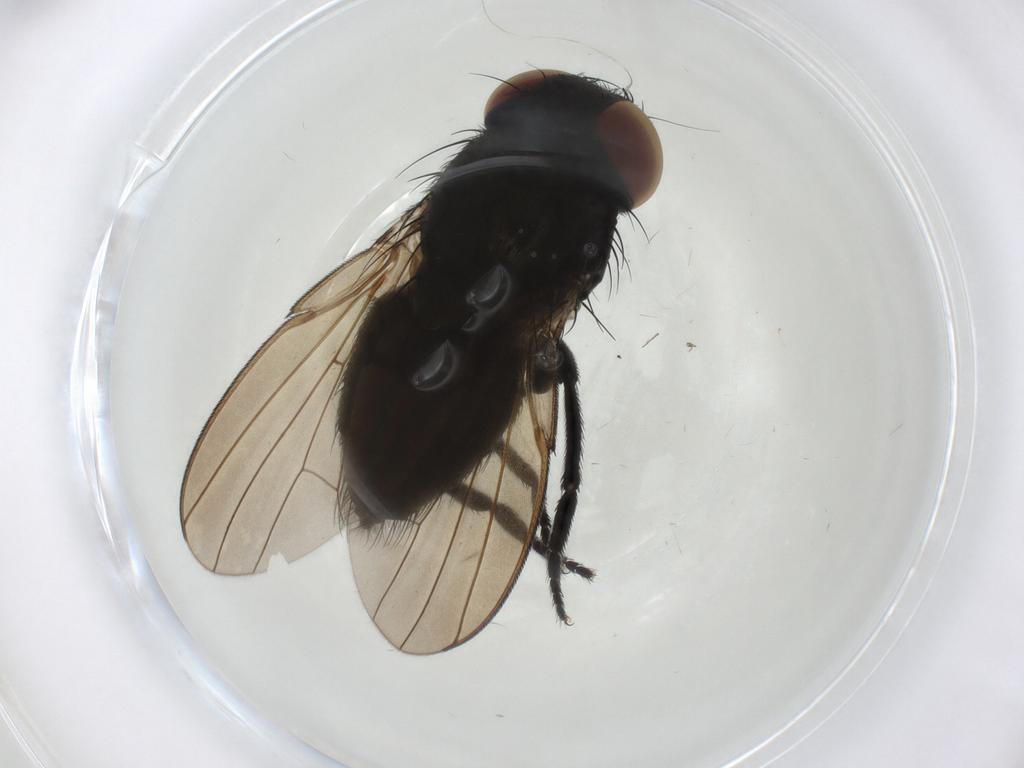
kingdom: Animalia
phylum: Arthropoda
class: Insecta
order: Diptera
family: Milichiidae
